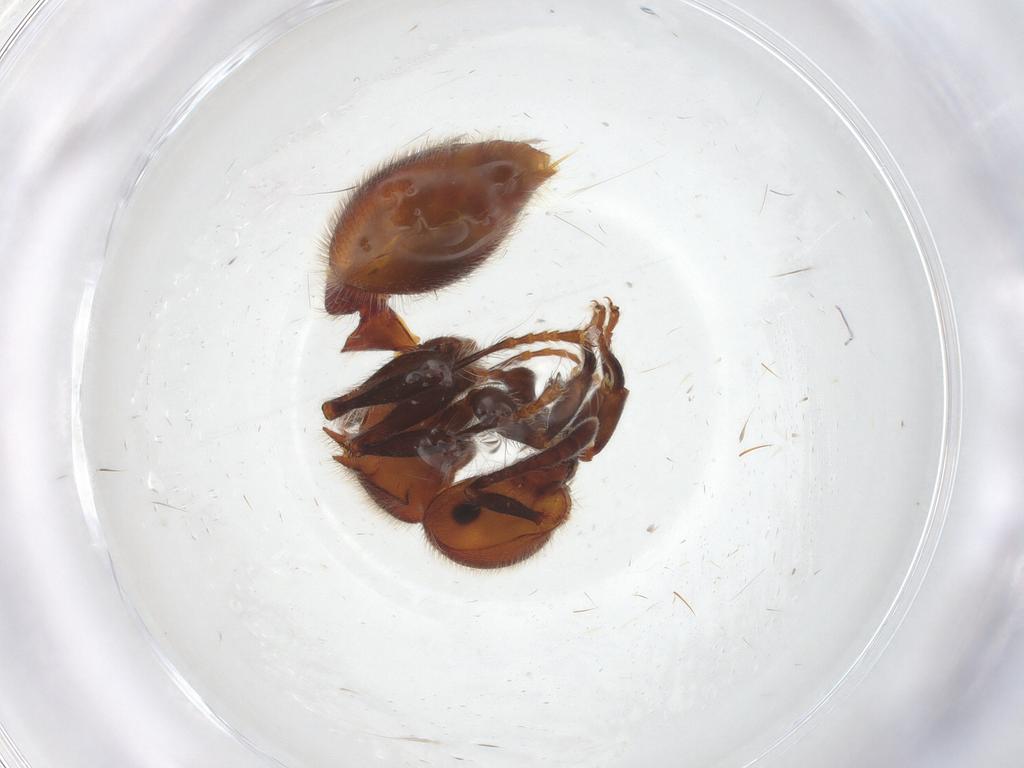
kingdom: Animalia
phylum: Arthropoda
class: Insecta
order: Hymenoptera
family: Formicidae
